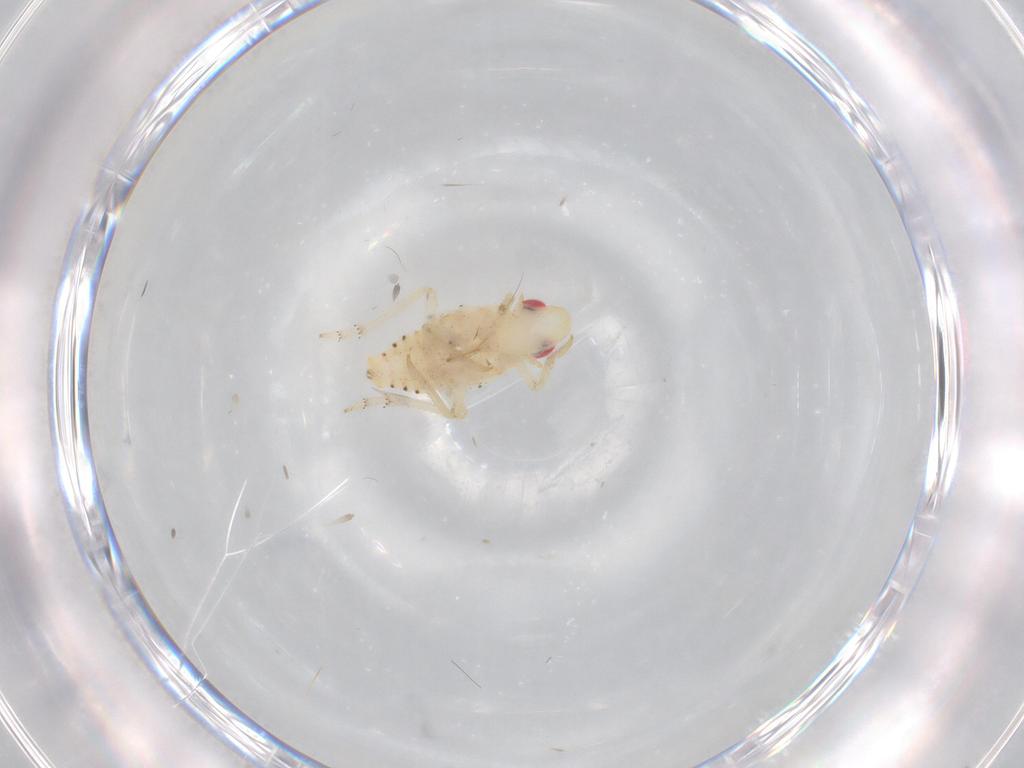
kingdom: Animalia
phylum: Arthropoda
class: Insecta
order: Hemiptera
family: Tropiduchidae
